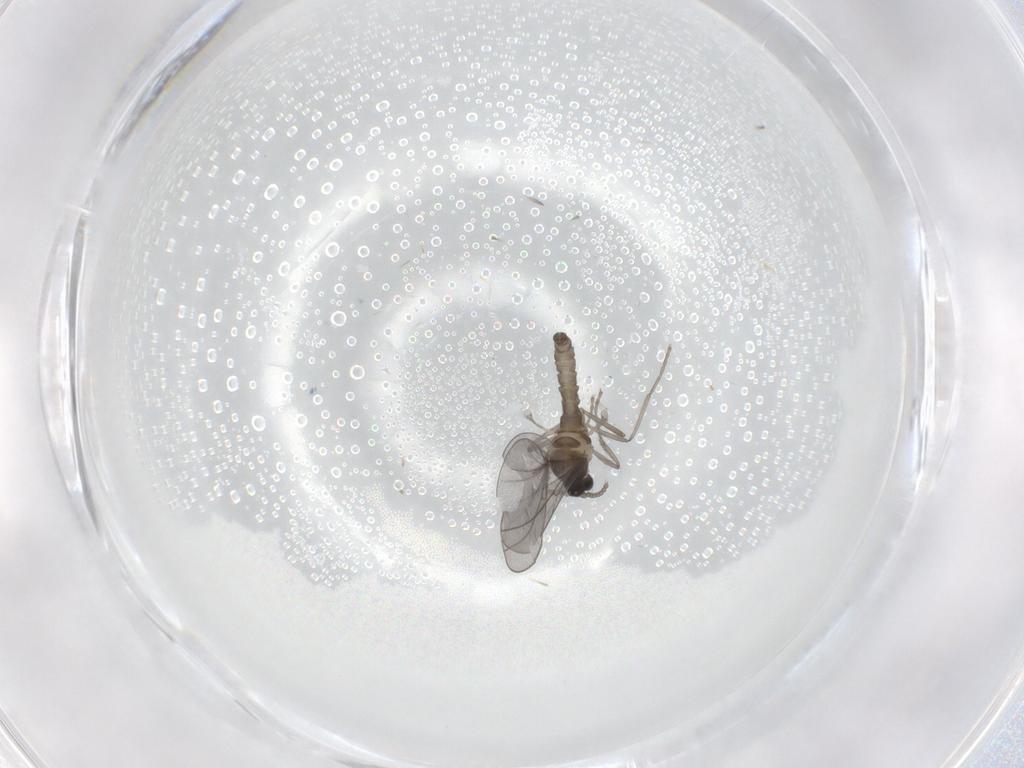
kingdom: Animalia
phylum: Arthropoda
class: Insecta
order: Diptera
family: Cecidomyiidae
